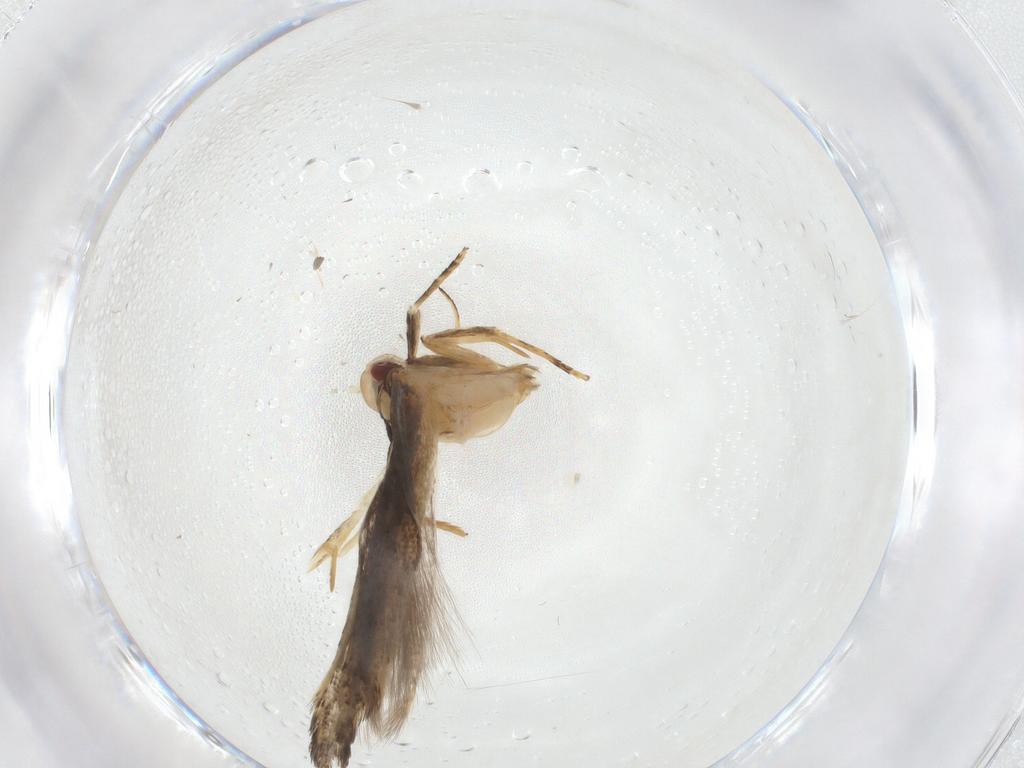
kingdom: Animalia
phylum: Arthropoda
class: Insecta
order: Lepidoptera
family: Cosmopterigidae
